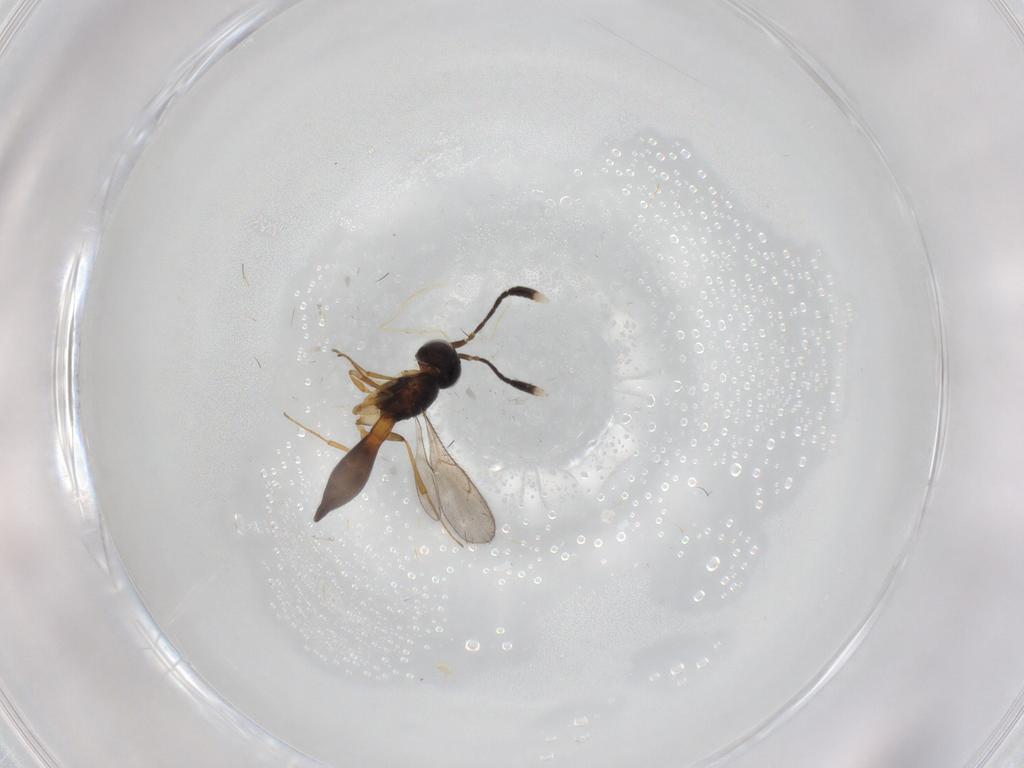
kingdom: Animalia
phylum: Arthropoda
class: Insecta
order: Hymenoptera
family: Scelionidae
